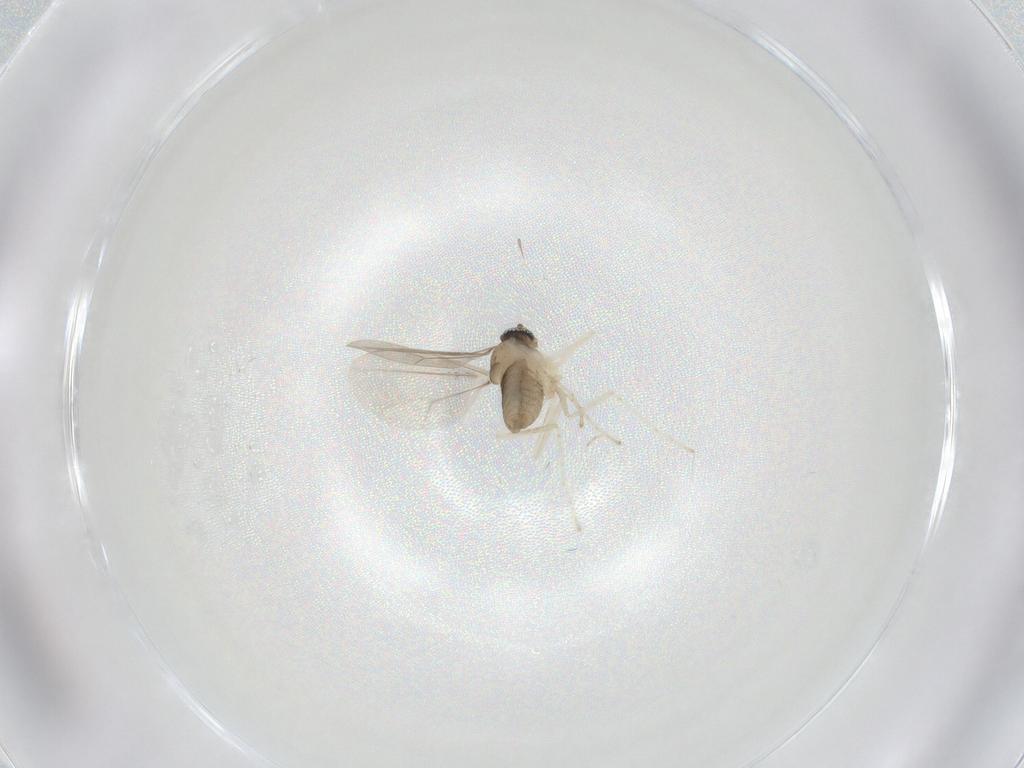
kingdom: Animalia
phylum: Arthropoda
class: Insecta
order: Diptera
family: Cecidomyiidae
